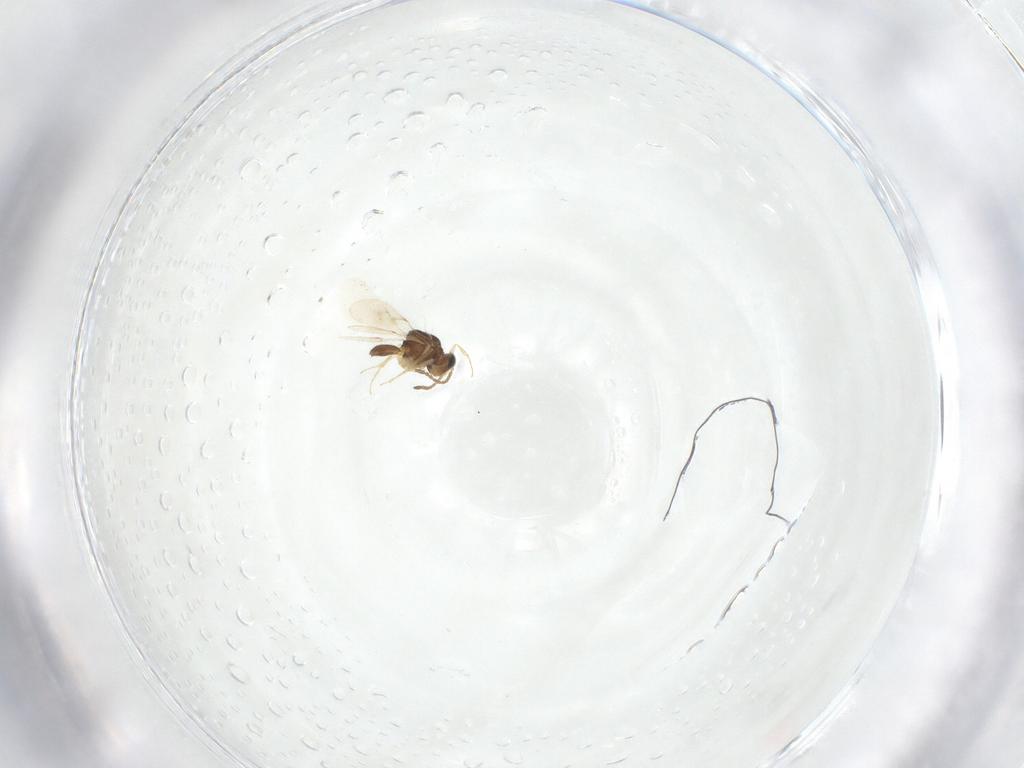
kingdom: Animalia
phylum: Arthropoda
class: Insecta
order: Hymenoptera
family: Scelionidae
